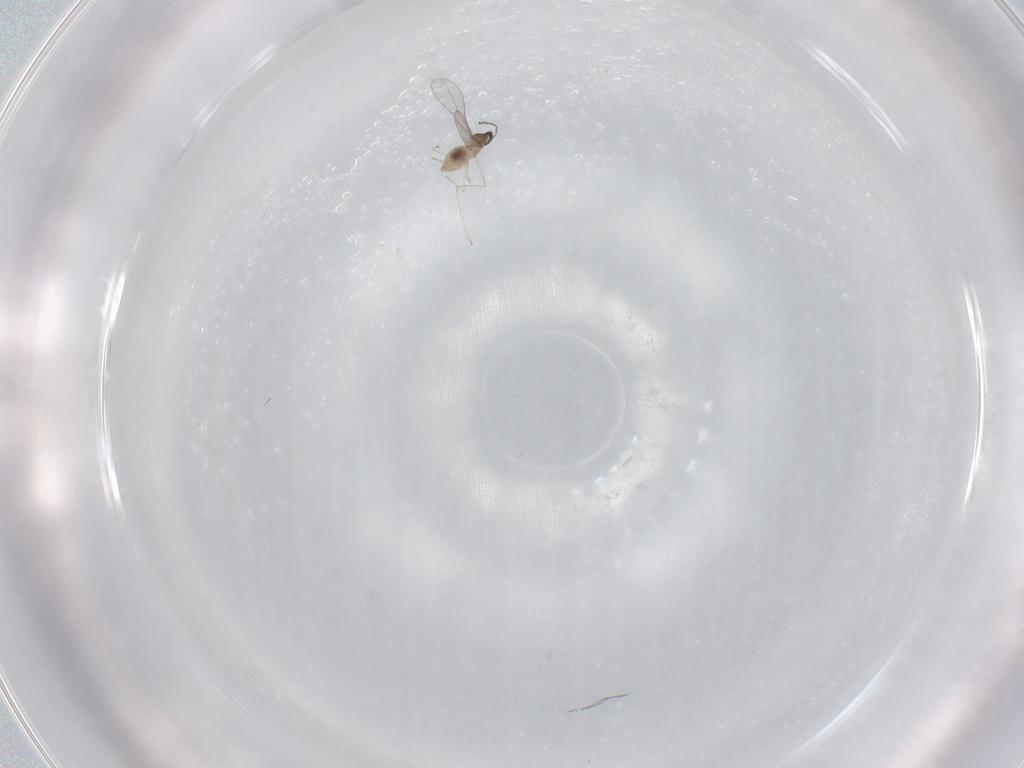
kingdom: Animalia
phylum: Arthropoda
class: Insecta
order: Diptera
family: Cecidomyiidae
